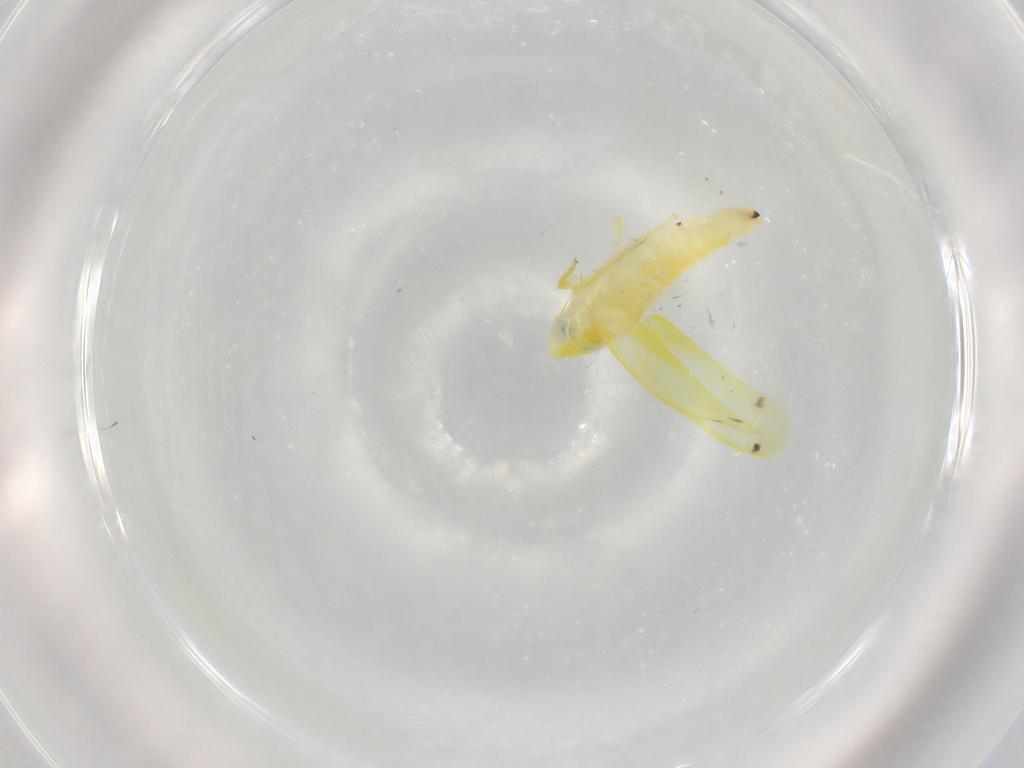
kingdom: Animalia
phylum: Arthropoda
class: Insecta
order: Hemiptera
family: Cicadellidae
